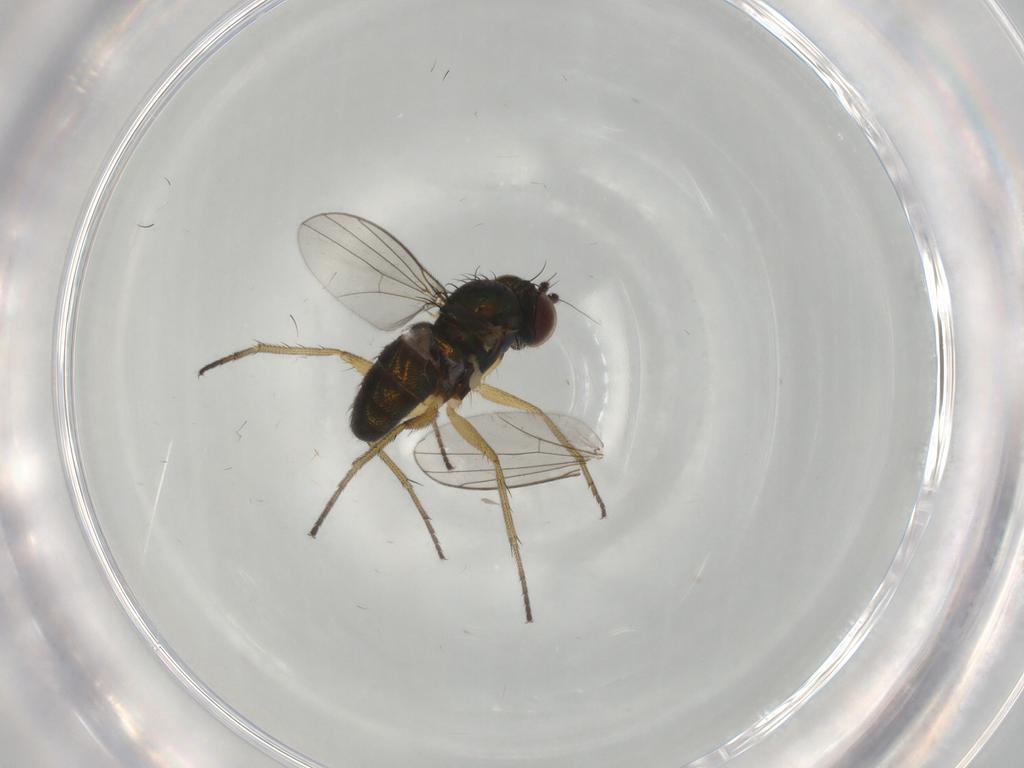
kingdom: Animalia
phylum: Arthropoda
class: Insecta
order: Diptera
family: Dolichopodidae
